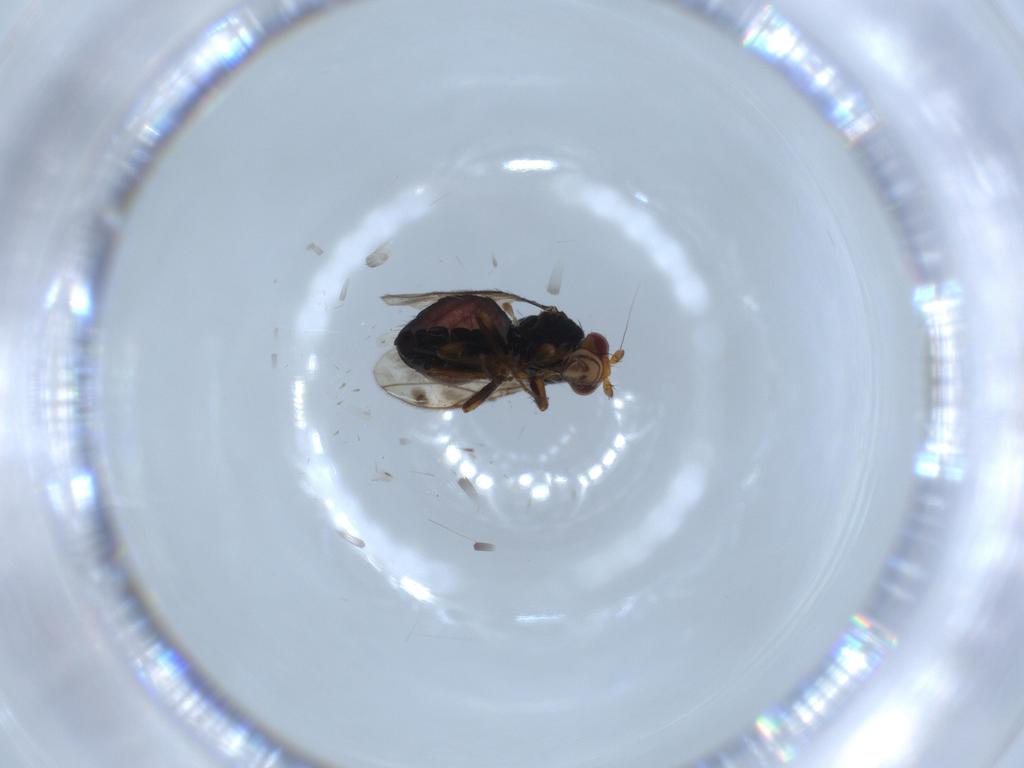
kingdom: Animalia
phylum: Arthropoda
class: Insecta
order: Diptera
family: Sphaeroceridae
